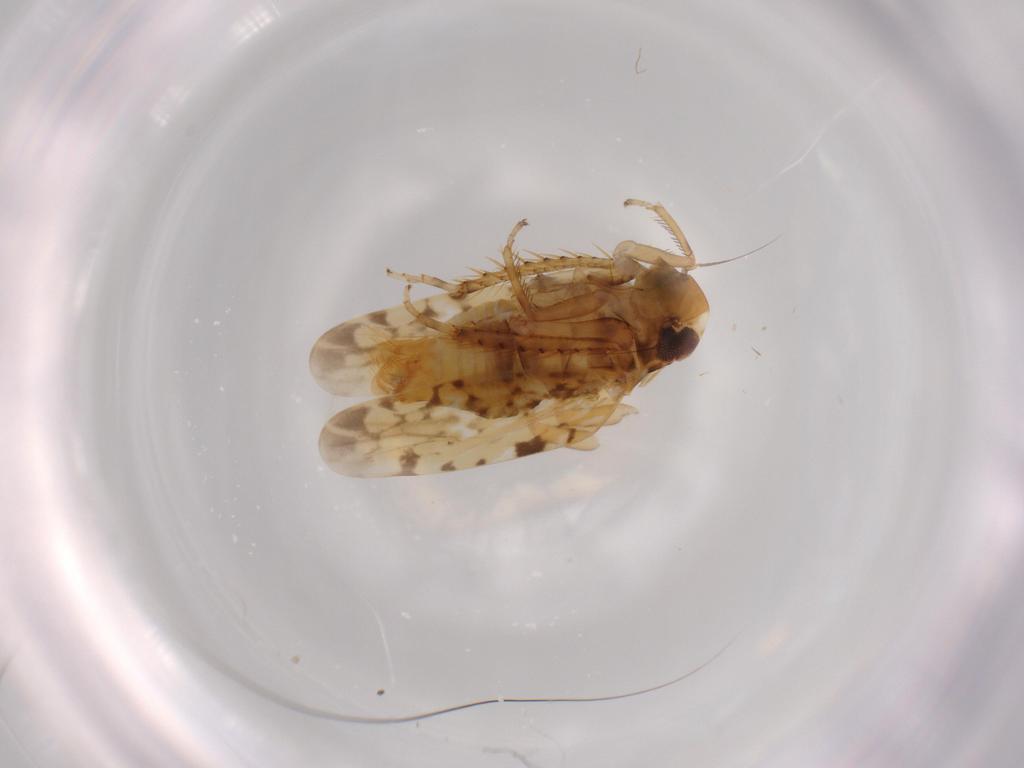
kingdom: Animalia
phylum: Arthropoda
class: Insecta
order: Hemiptera
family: Cicadellidae
